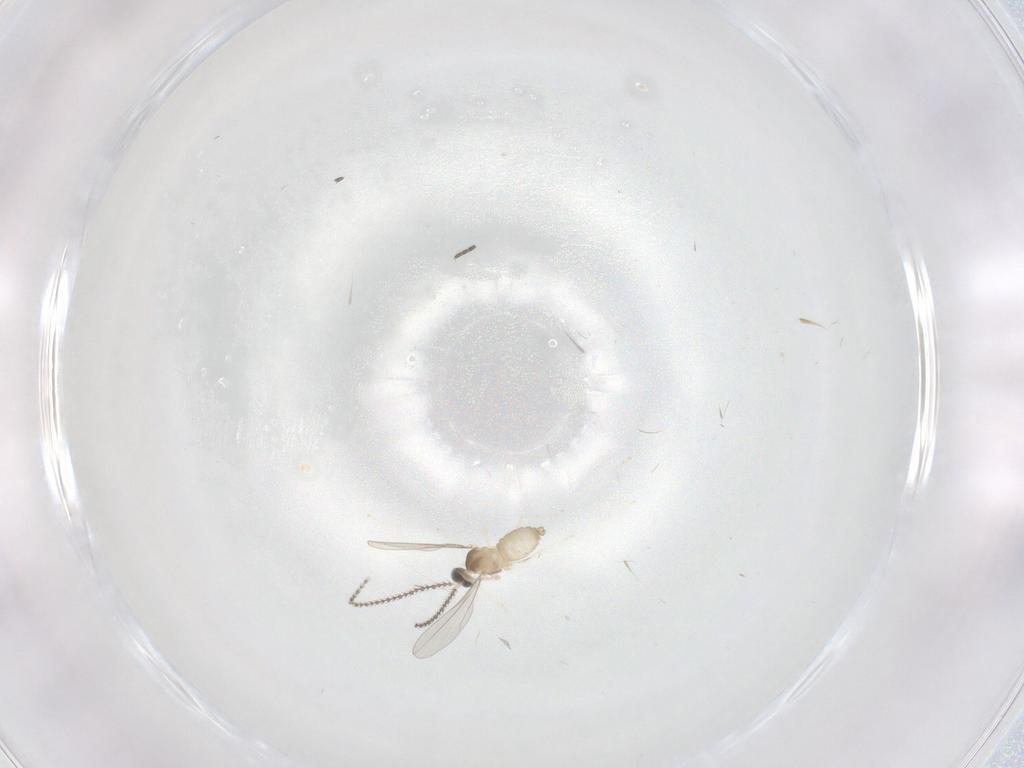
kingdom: Animalia
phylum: Arthropoda
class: Insecta
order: Diptera
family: Cecidomyiidae
